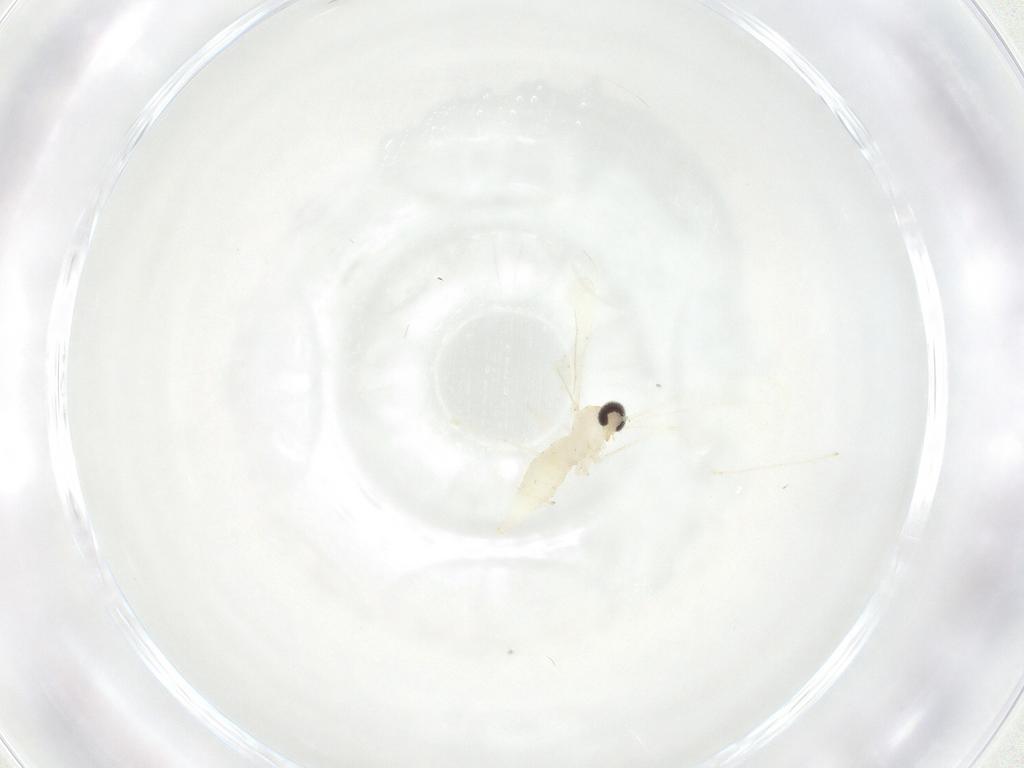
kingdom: Animalia
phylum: Arthropoda
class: Insecta
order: Diptera
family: Cecidomyiidae
